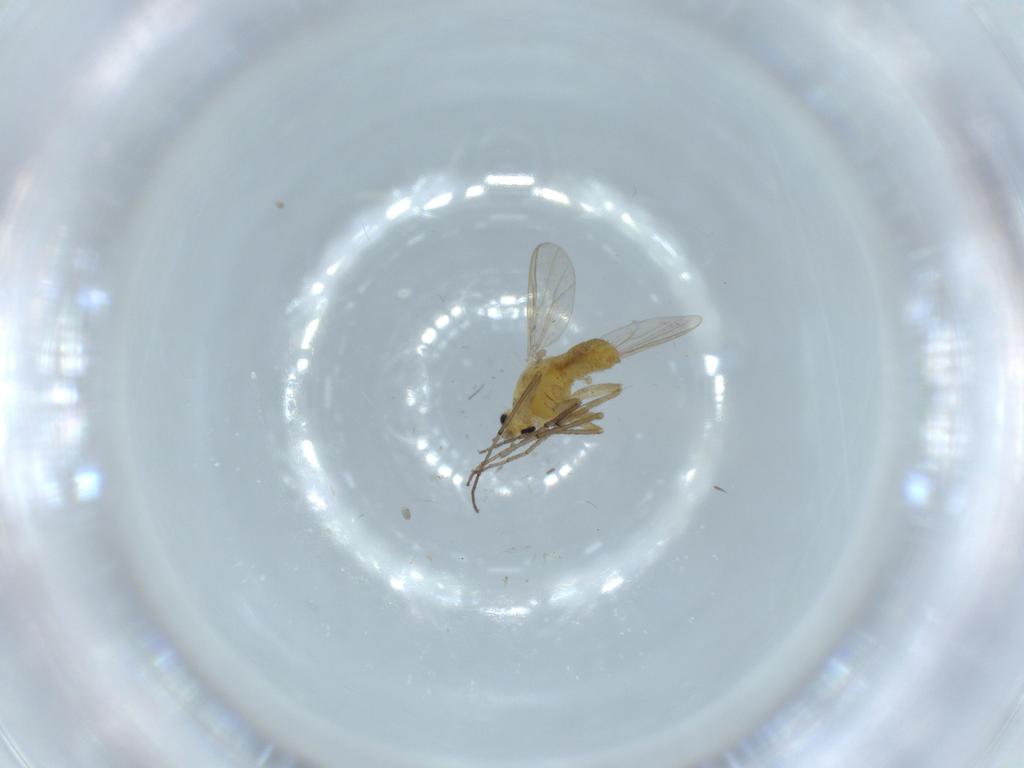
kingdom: Animalia
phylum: Arthropoda
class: Insecta
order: Diptera
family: Chironomidae
